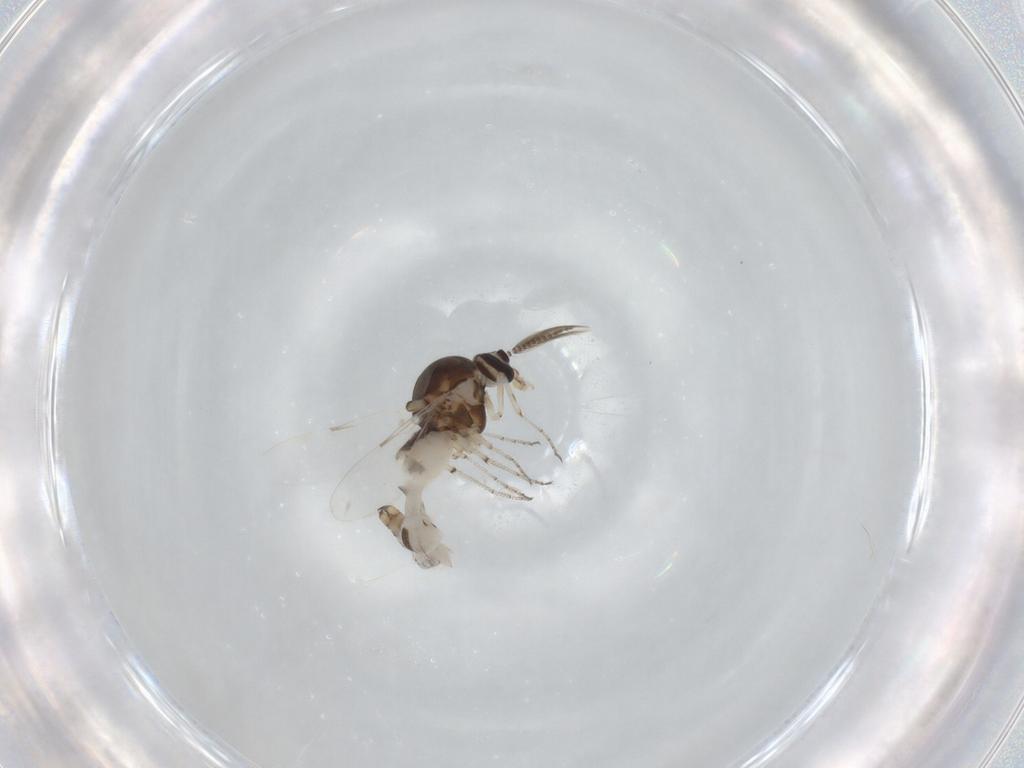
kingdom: Animalia
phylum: Arthropoda
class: Insecta
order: Diptera
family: Ceratopogonidae
